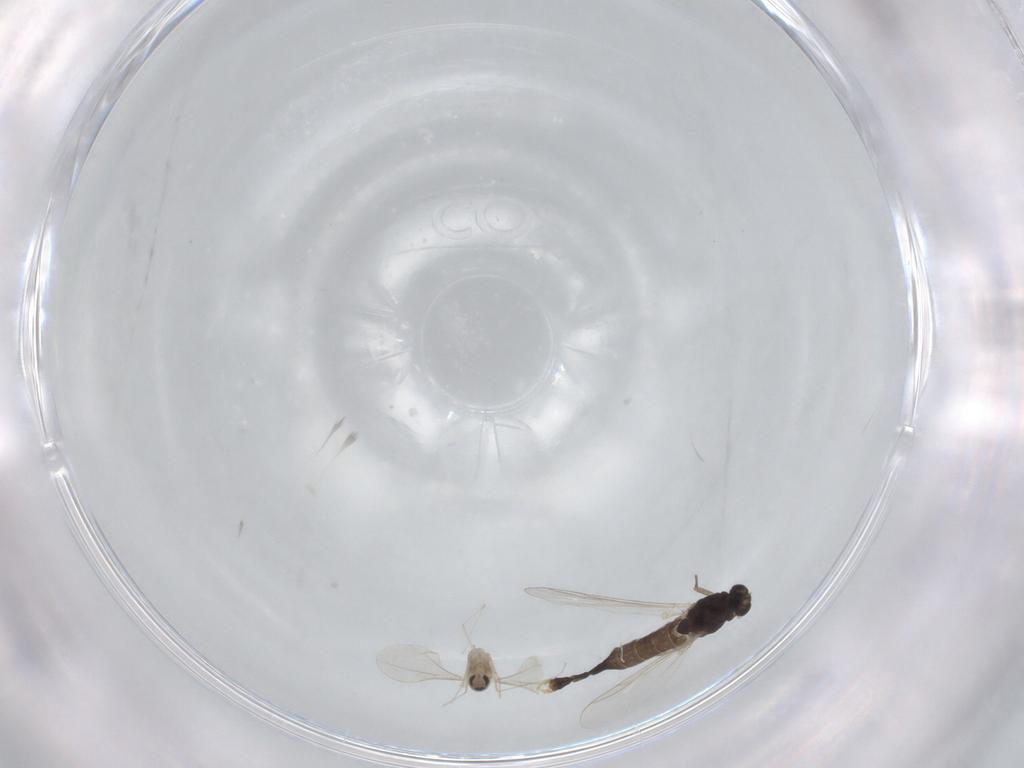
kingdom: Animalia
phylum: Arthropoda
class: Insecta
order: Diptera
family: Cecidomyiidae
